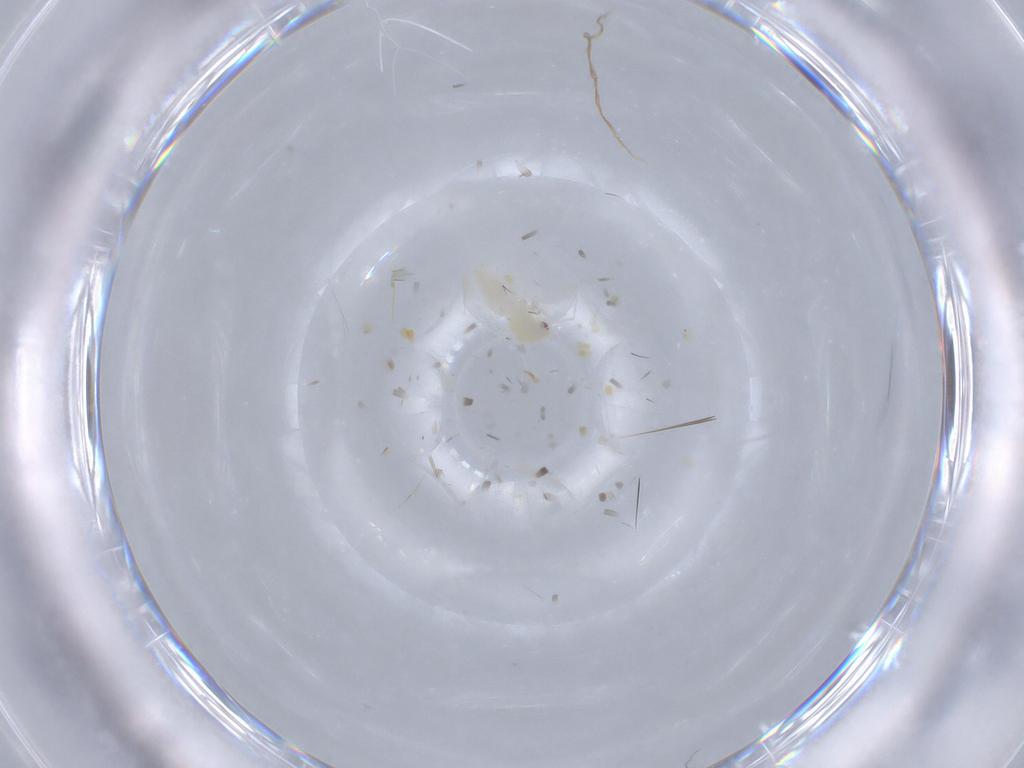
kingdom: Animalia
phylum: Arthropoda
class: Insecta
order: Hemiptera
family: Aleyrodidae
